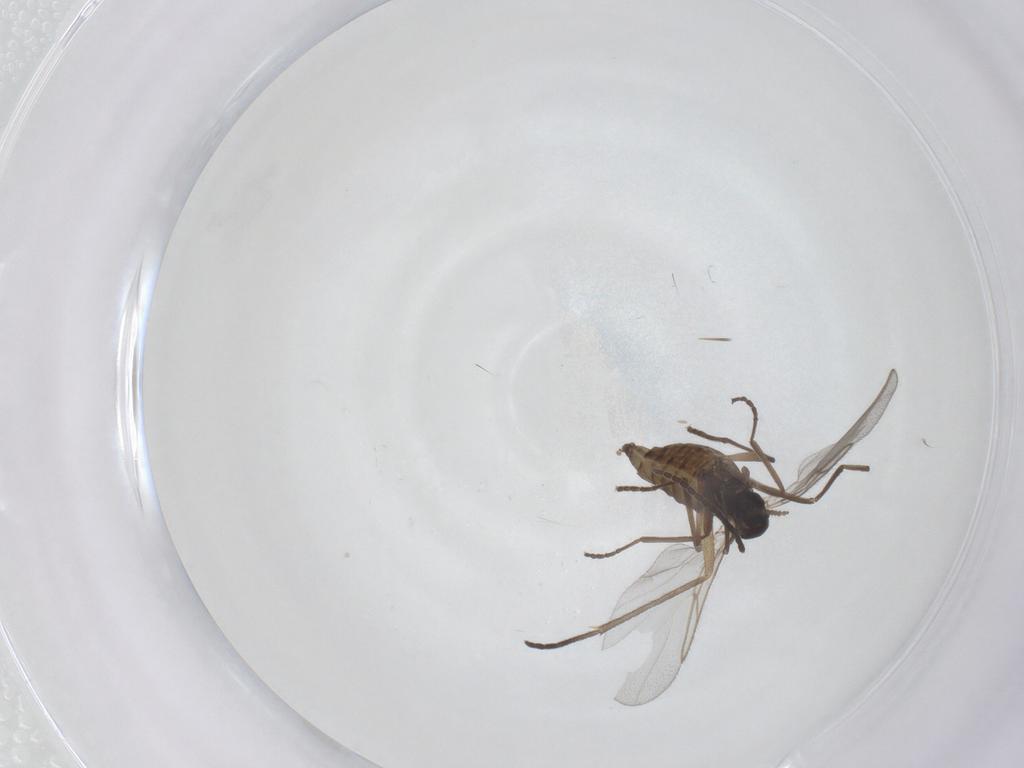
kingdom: Animalia
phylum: Arthropoda
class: Insecta
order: Diptera
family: Cecidomyiidae
